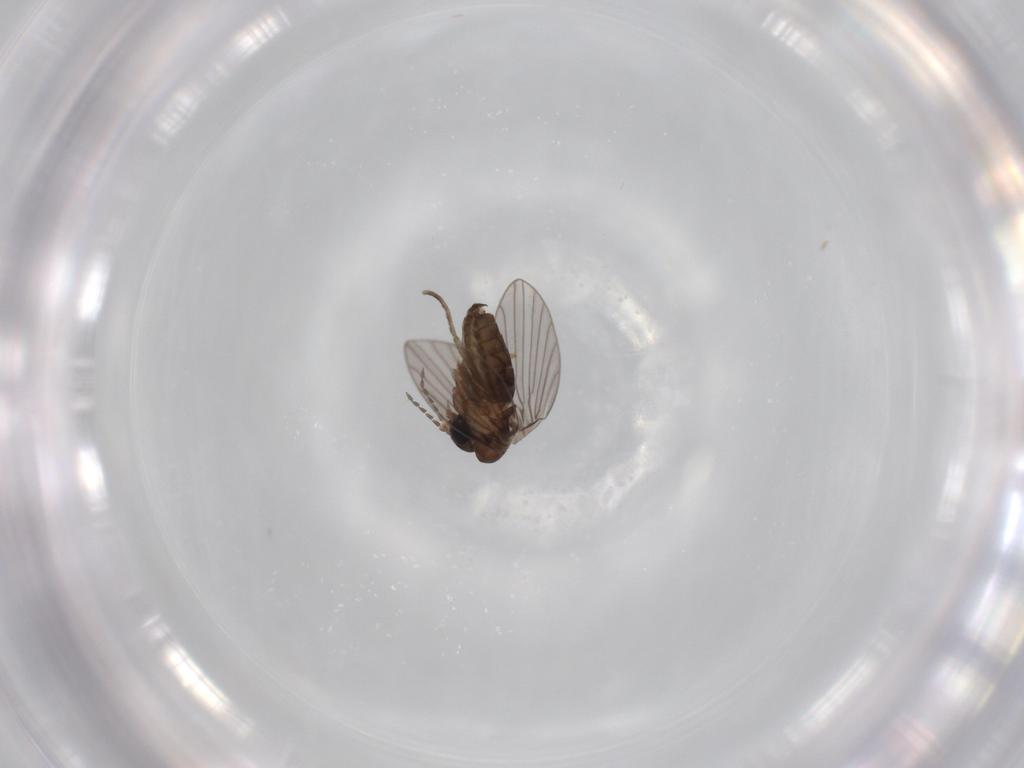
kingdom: Animalia
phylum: Arthropoda
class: Insecta
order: Diptera
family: Psychodidae
